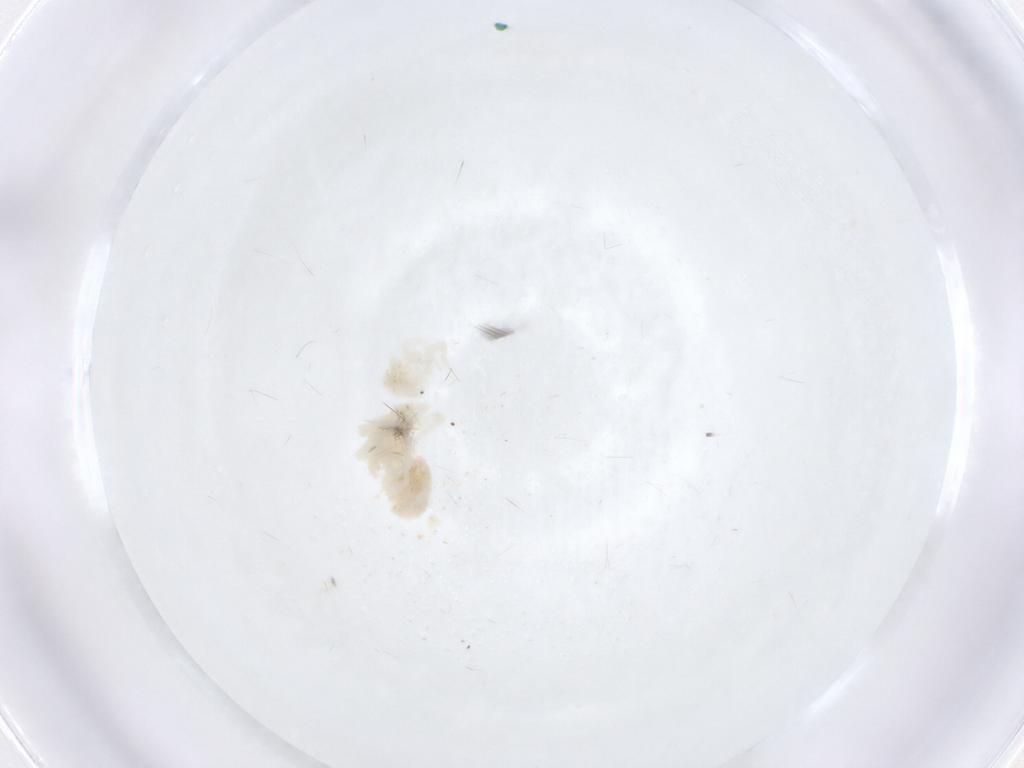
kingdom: Animalia
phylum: Arthropoda
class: Arachnida
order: Trombidiformes
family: Anystidae
